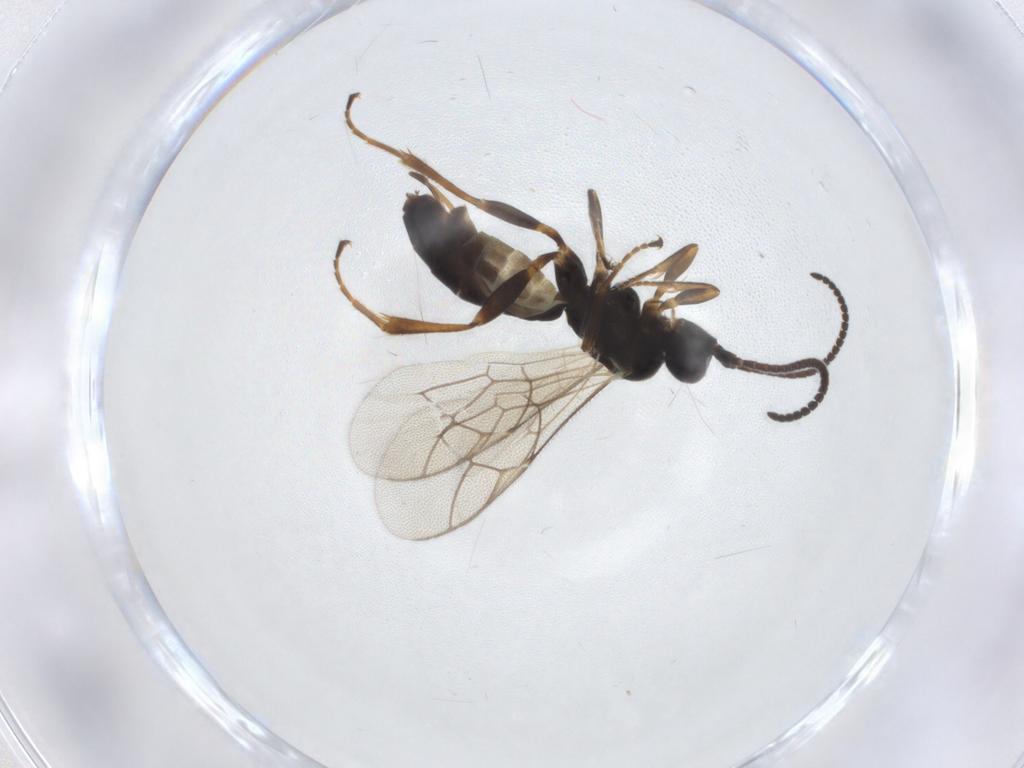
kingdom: Animalia
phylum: Arthropoda
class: Insecta
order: Hymenoptera
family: Ichneumonidae
